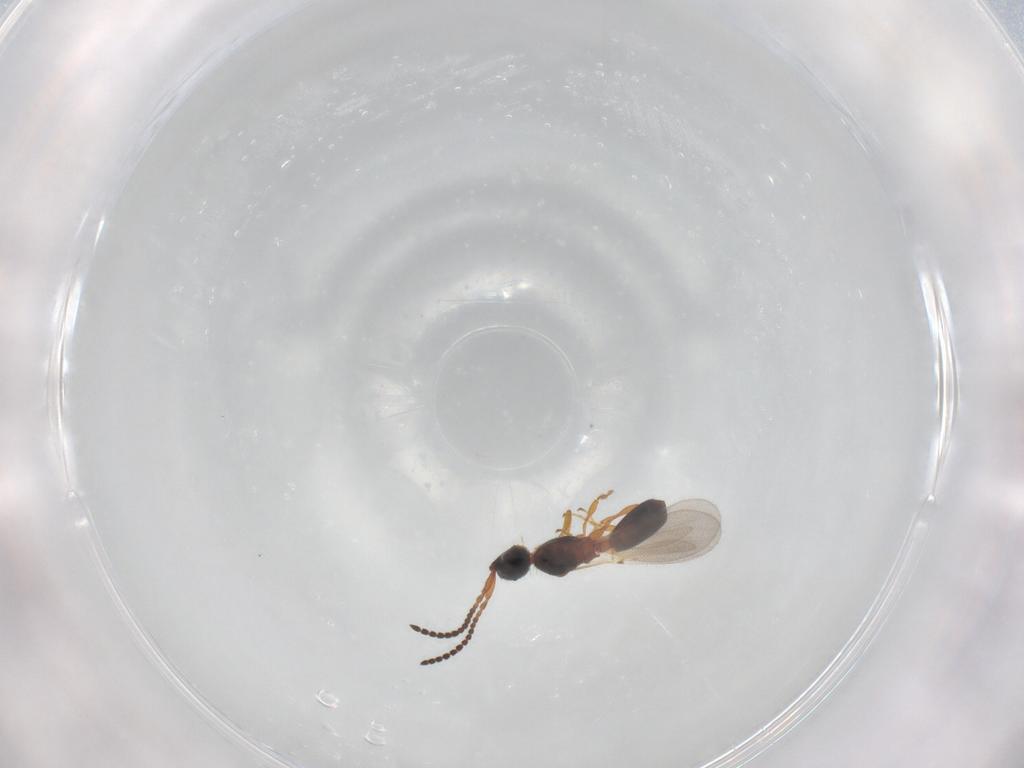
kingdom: Animalia
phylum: Arthropoda
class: Insecta
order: Hymenoptera
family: Diapriidae
